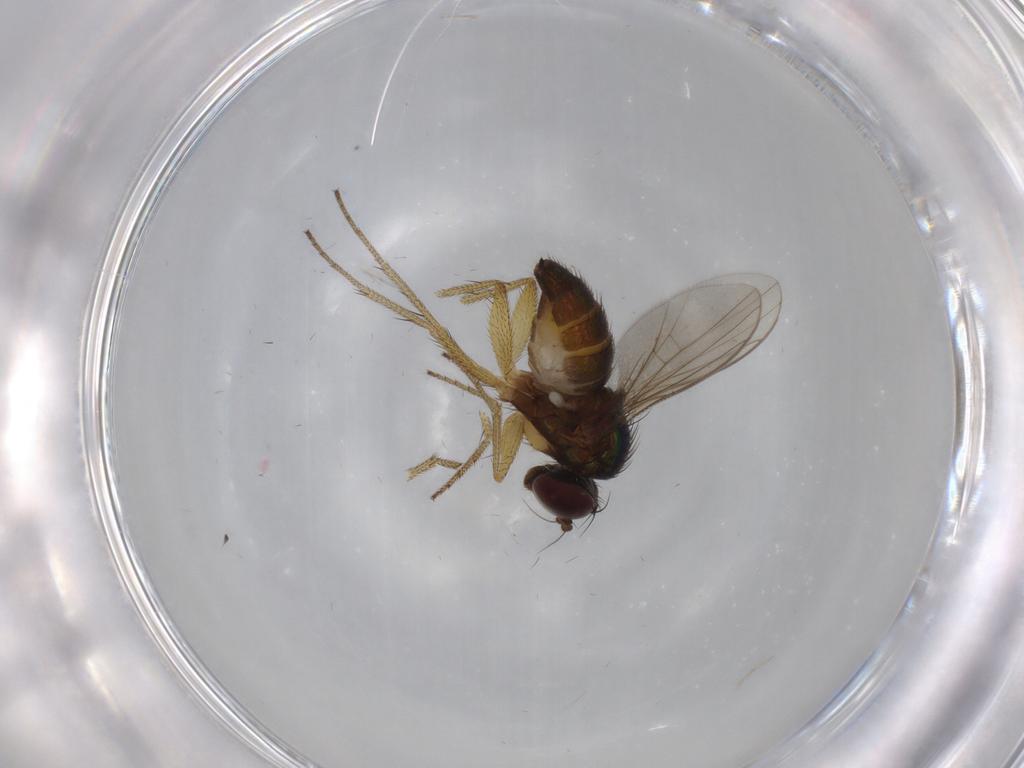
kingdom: Animalia
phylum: Arthropoda
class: Insecta
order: Diptera
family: Dolichopodidae
